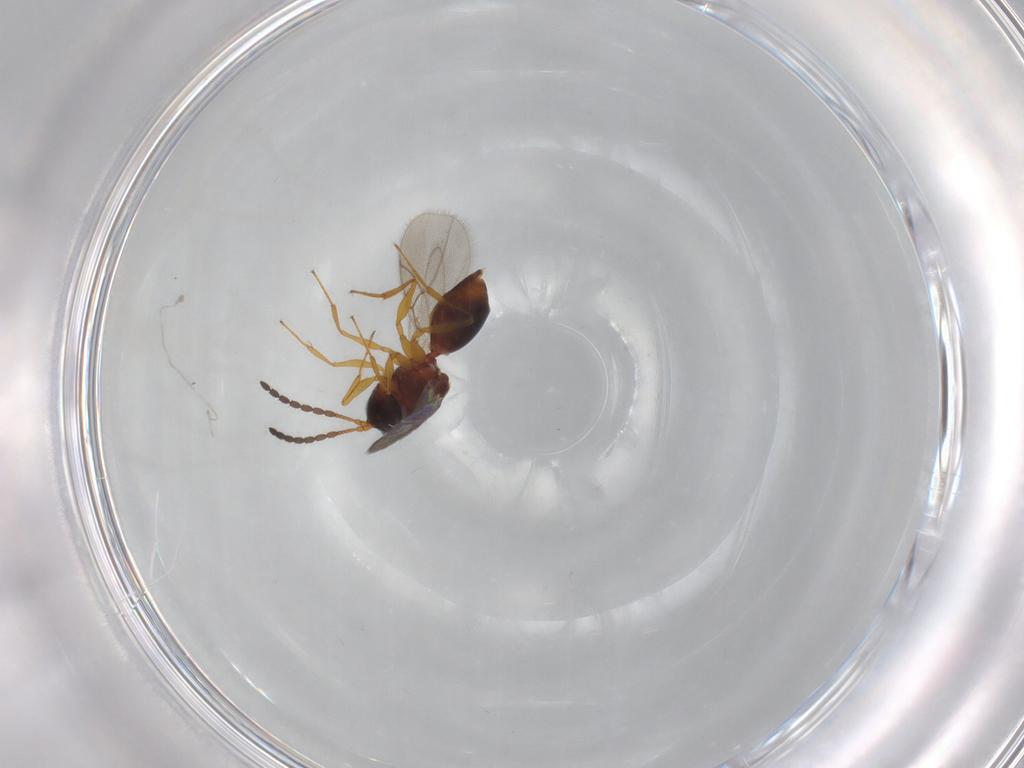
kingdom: Animalia
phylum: Arthropoda
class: Insecta
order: Hymenoptera
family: Figitidae
